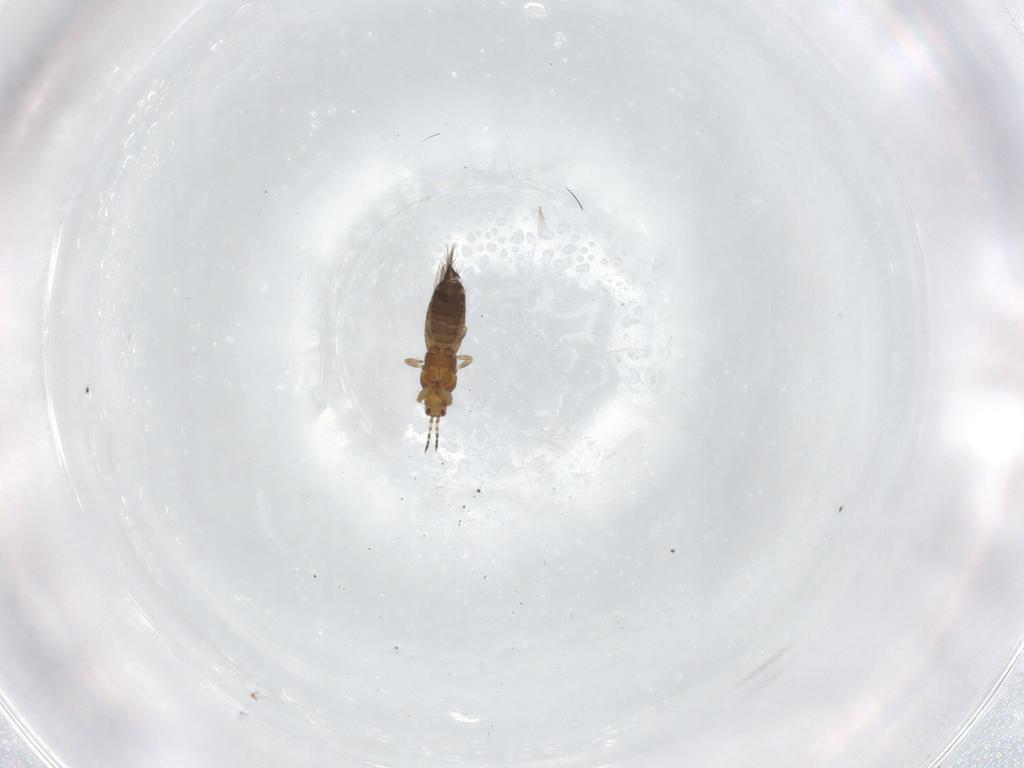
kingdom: Animalia
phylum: Arthropoda
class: Insecta
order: Thysanoptera
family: Thripidae
